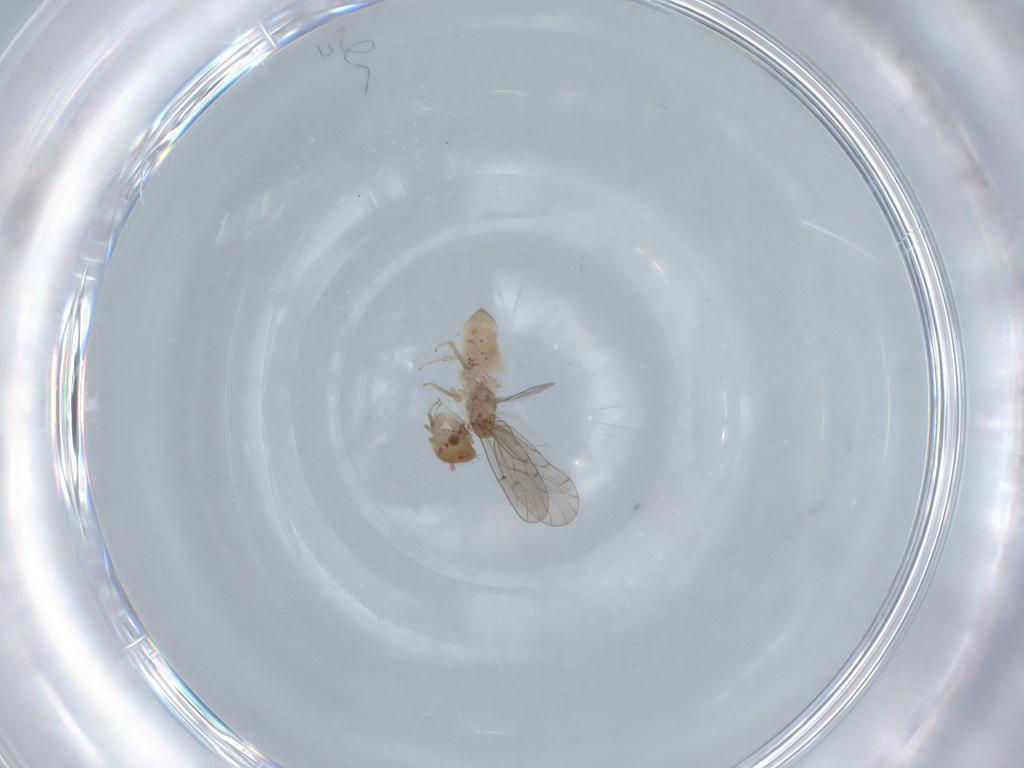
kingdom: Animalia
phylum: Arthropoda
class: Insecta
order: Psocodea
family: Ectopsocidae
